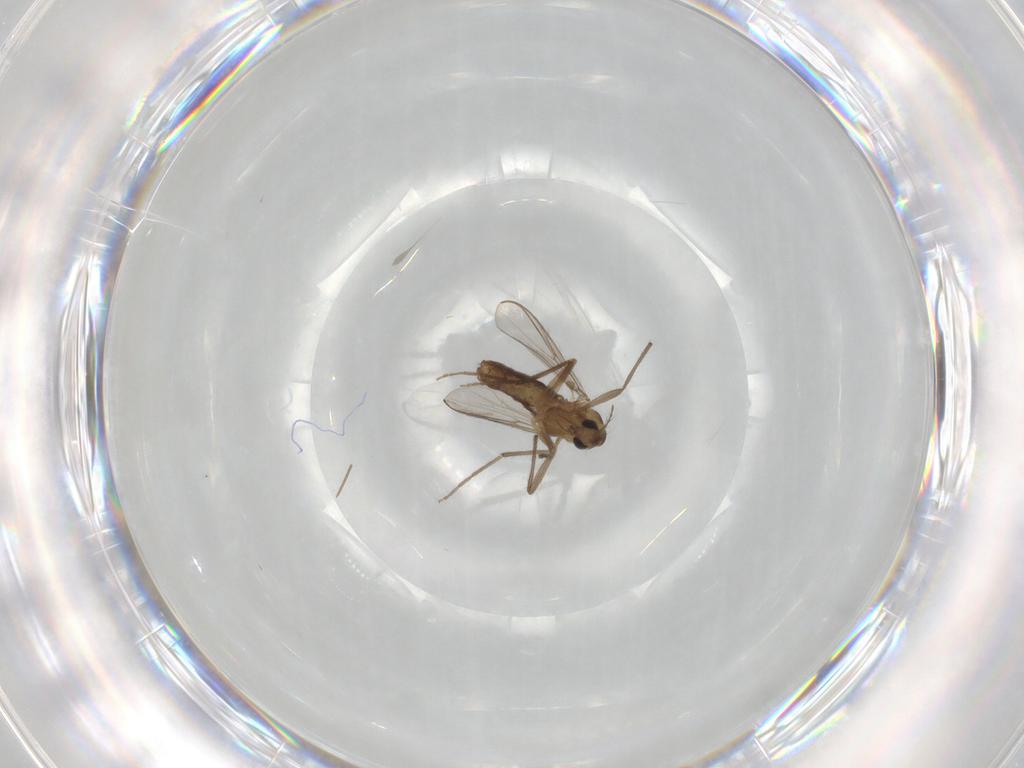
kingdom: Animalia
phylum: Arthropoda
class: Insecta
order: Diptera
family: Chironomidae
